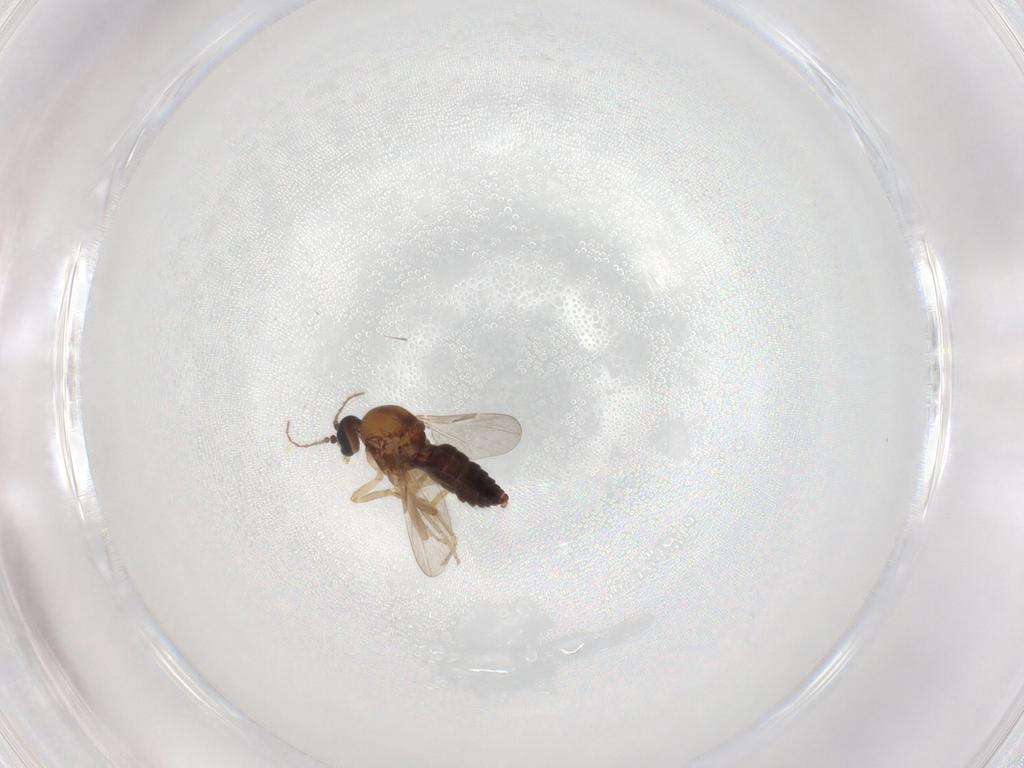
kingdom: Animalia
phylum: Arthropoda
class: Insecta
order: Diptera
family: Ceratopogonidae
